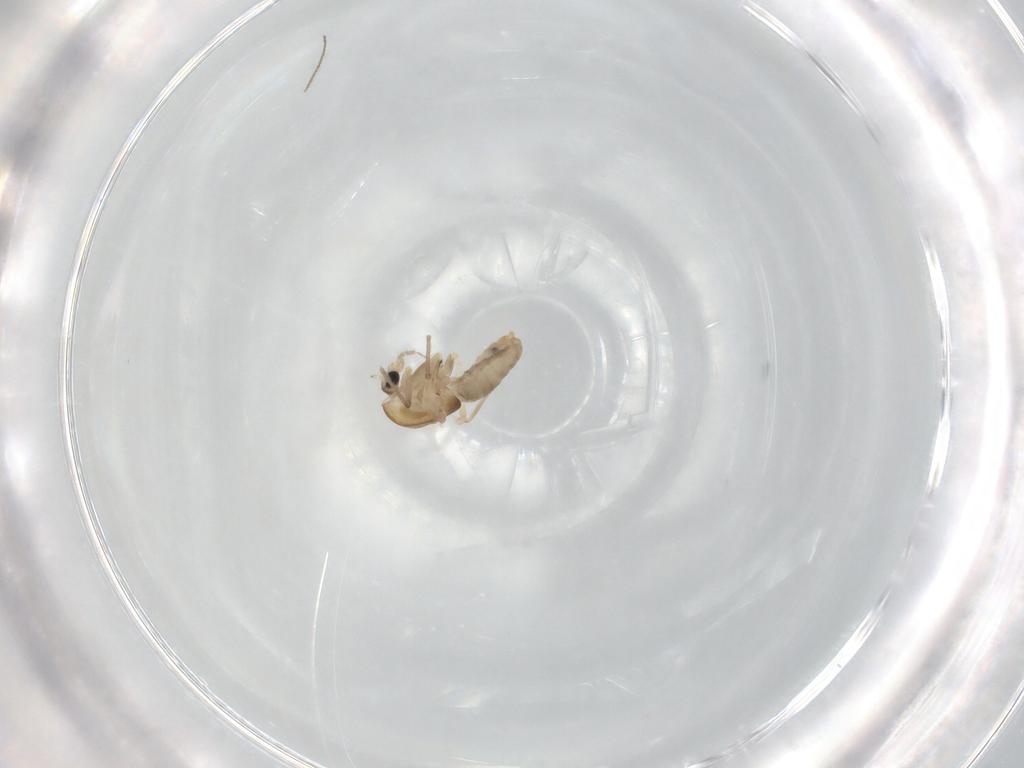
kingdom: Animalia
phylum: Arthropoda
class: Insecta
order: Diptera
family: Chironomidae
